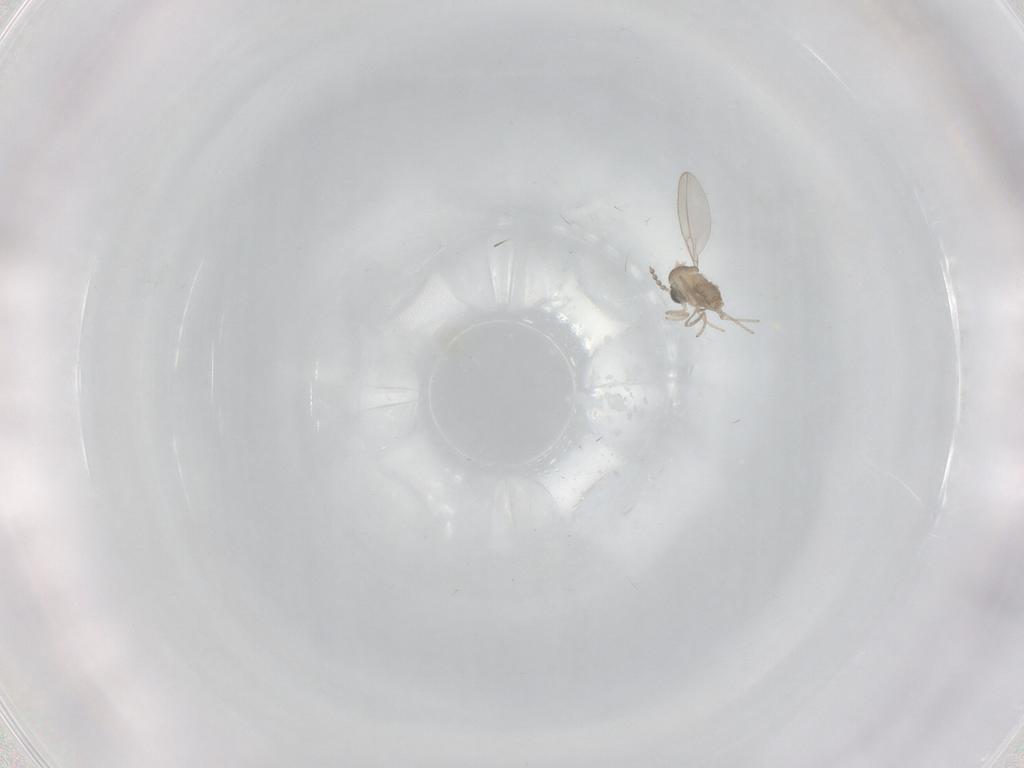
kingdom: Animalia
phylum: Arthropoda
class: Insecta
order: Diptera
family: Cecidomyiidae
